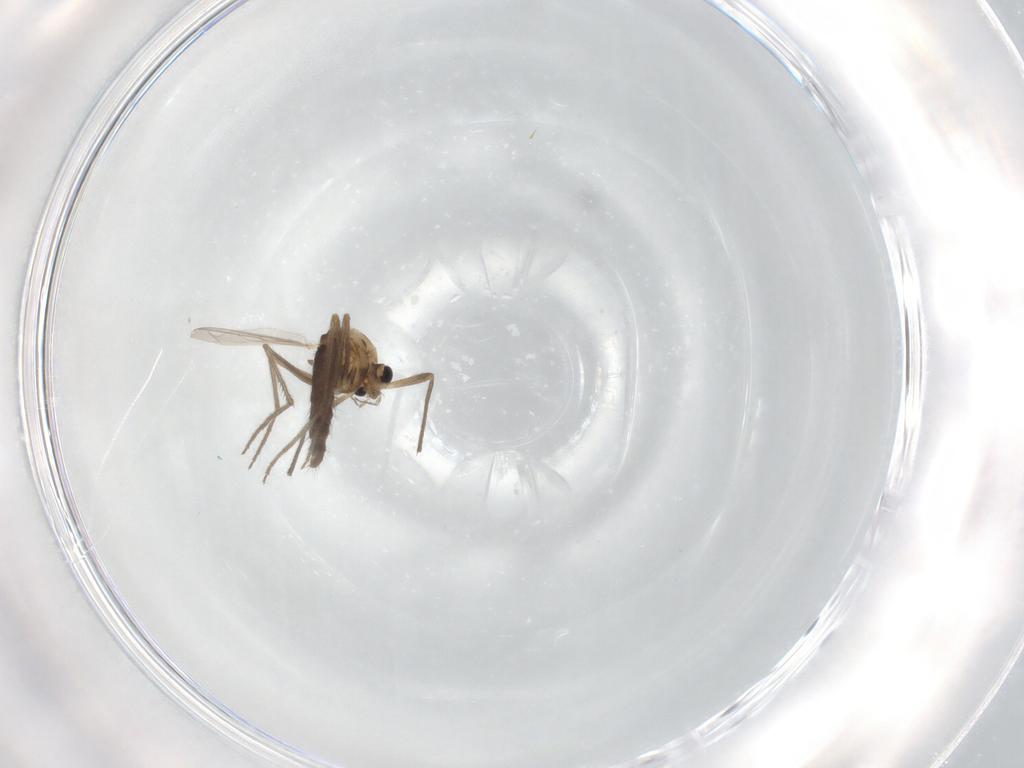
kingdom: Animalia
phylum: Arthropoda
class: Insecta
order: Diptera
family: Chironomidae
